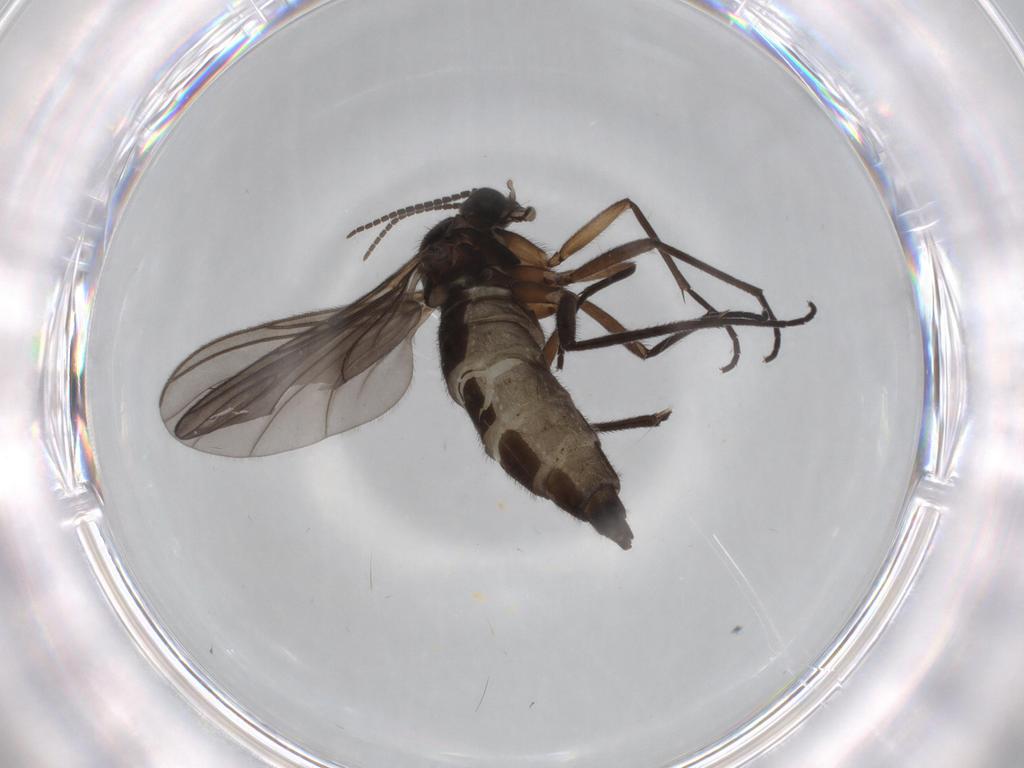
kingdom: Animalia
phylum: Arthropoda
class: Insecta
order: Diptera
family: Sciaridae
